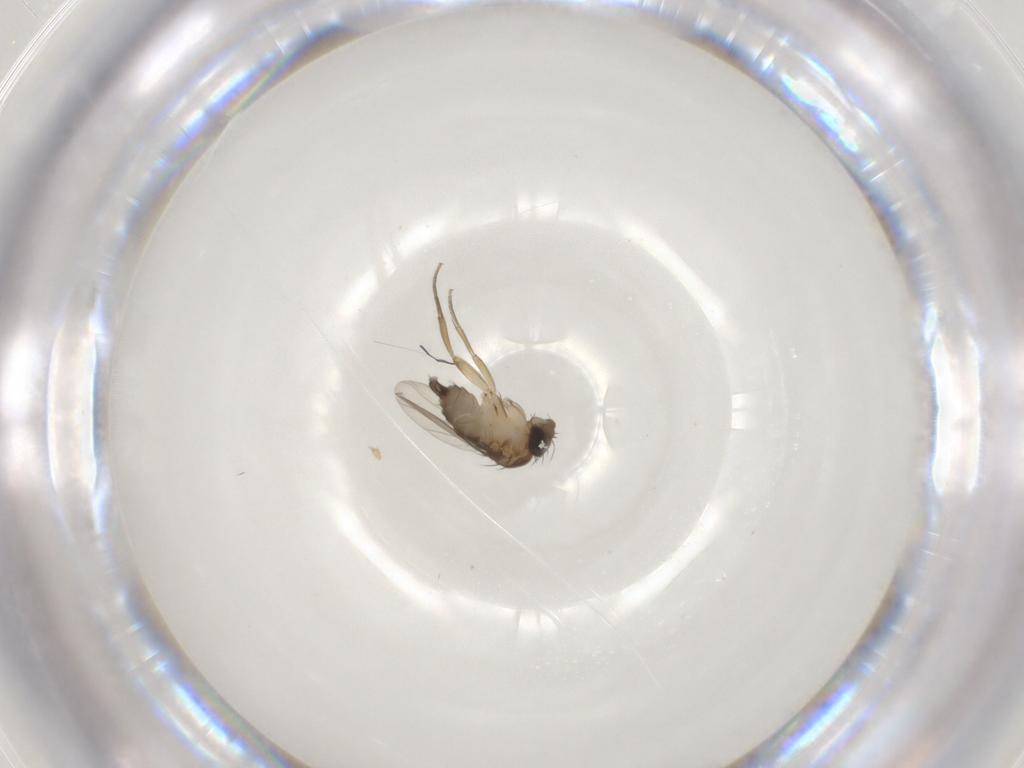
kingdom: Animalia
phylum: Arthropoda
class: Insecta
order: Diptera
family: Phoridae
